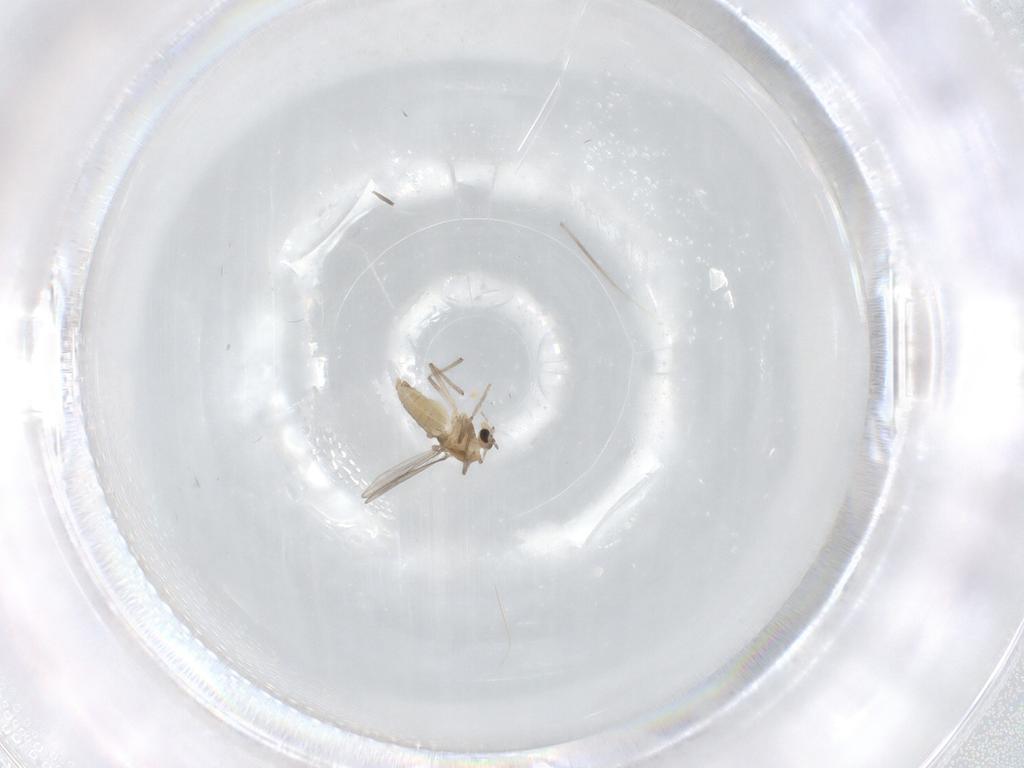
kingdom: Animalia
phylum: Arthropoda
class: Insecta
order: Diptera
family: Chironomidae
